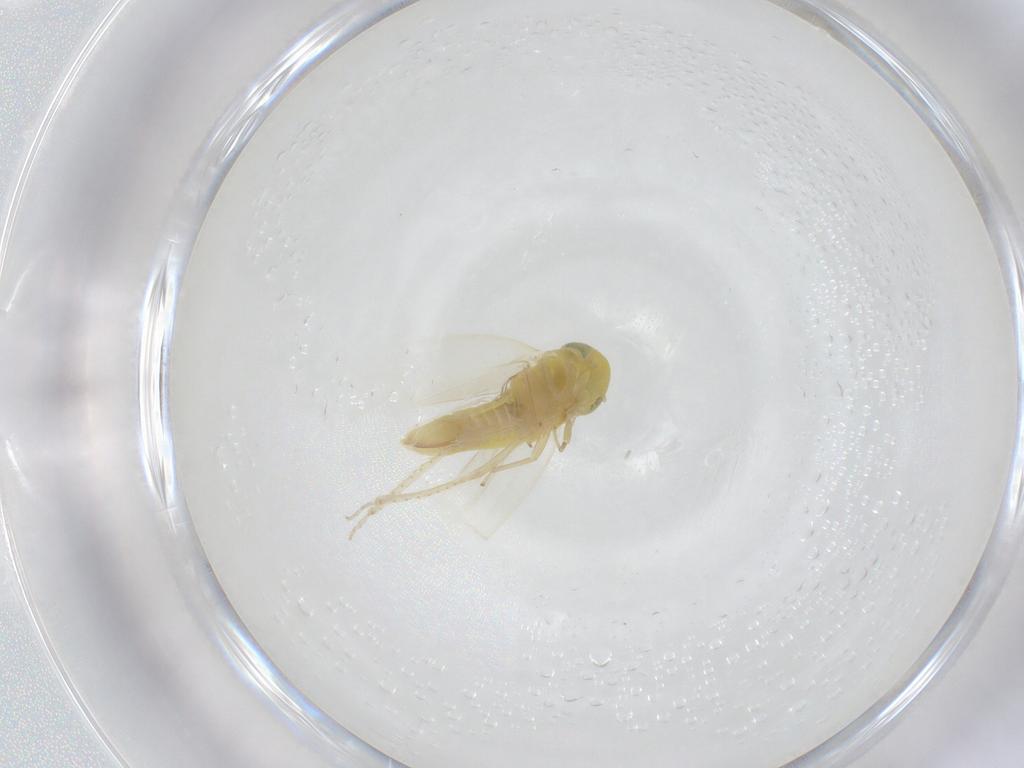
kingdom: Animalia
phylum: Arthropoda
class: Insecta
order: Hemiptera
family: Cicadellidae
